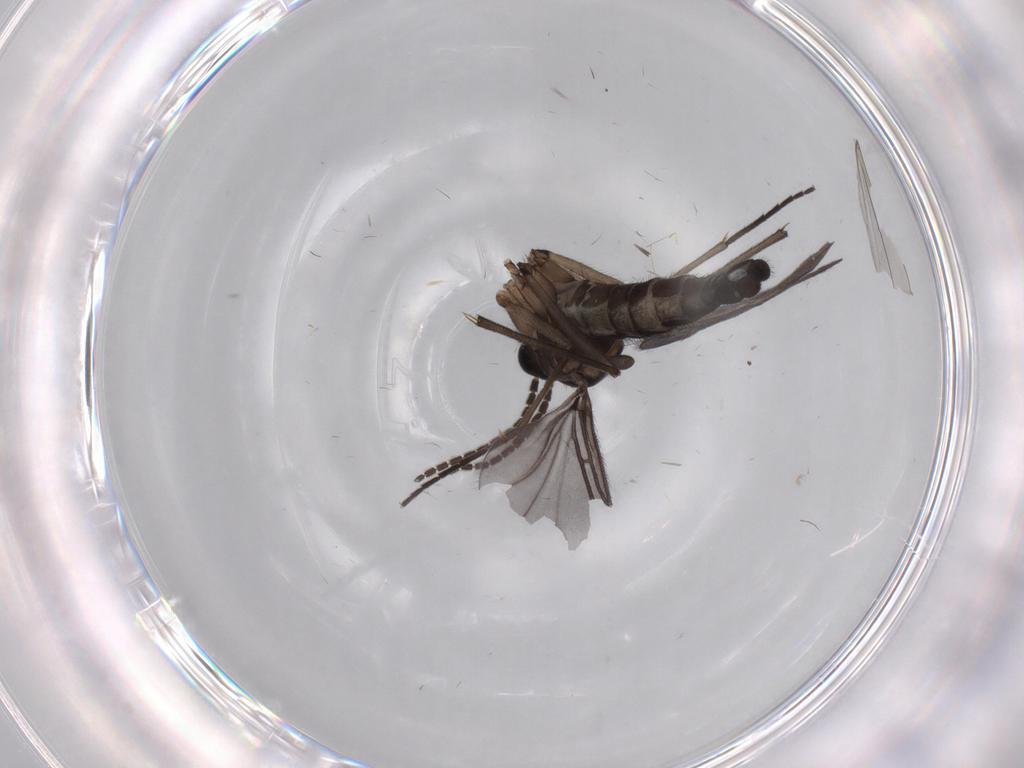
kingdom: Animalia
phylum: Arthropoda
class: Insecta
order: Diptera
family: Sciaridae
